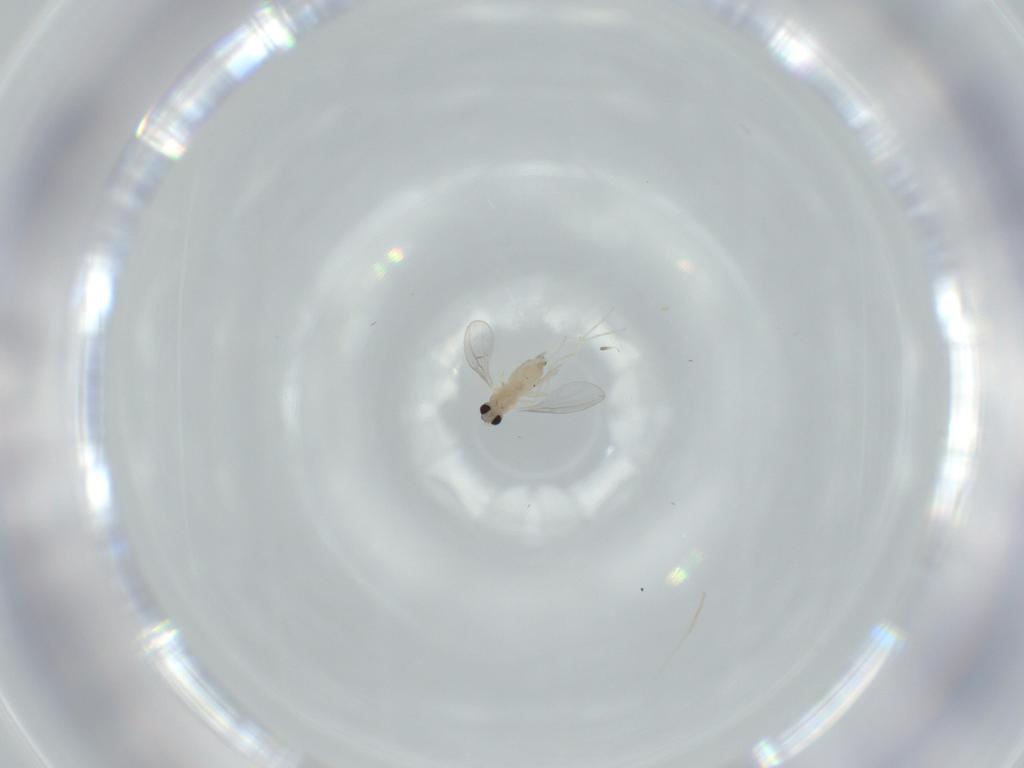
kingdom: Animalia
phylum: Arthropoda
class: Insecta
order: Diptera
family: Cecidomyiidae
